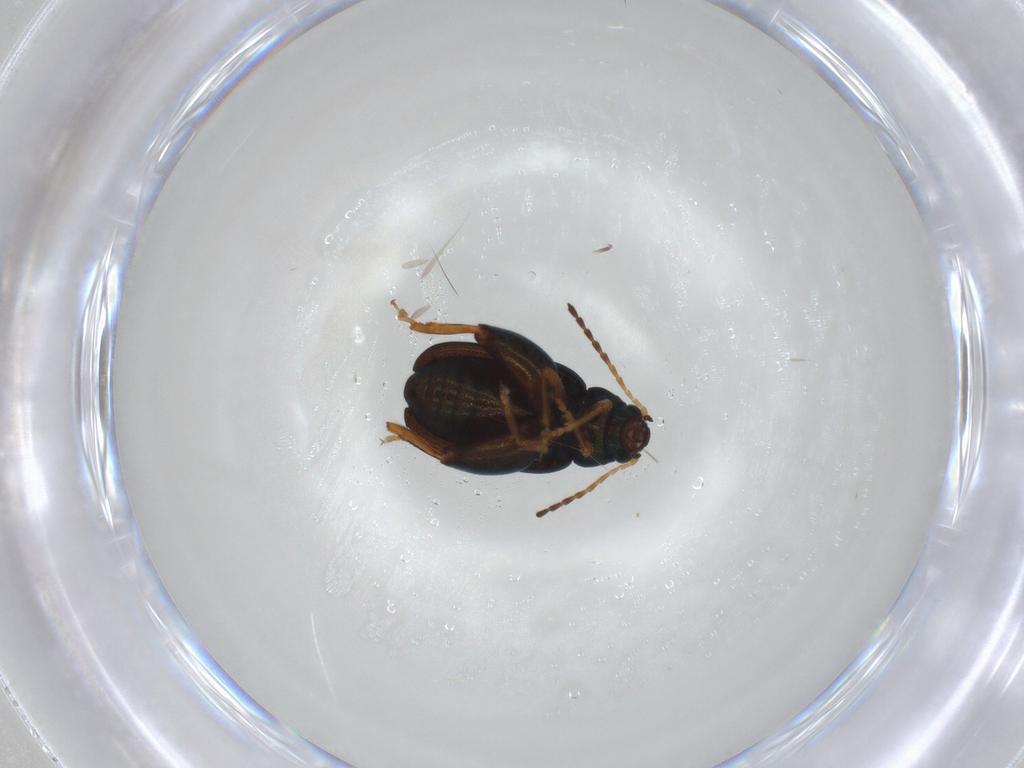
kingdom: Animalia
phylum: Arthropoda
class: Insecta
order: Coleoptera
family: Chrysomelidae
